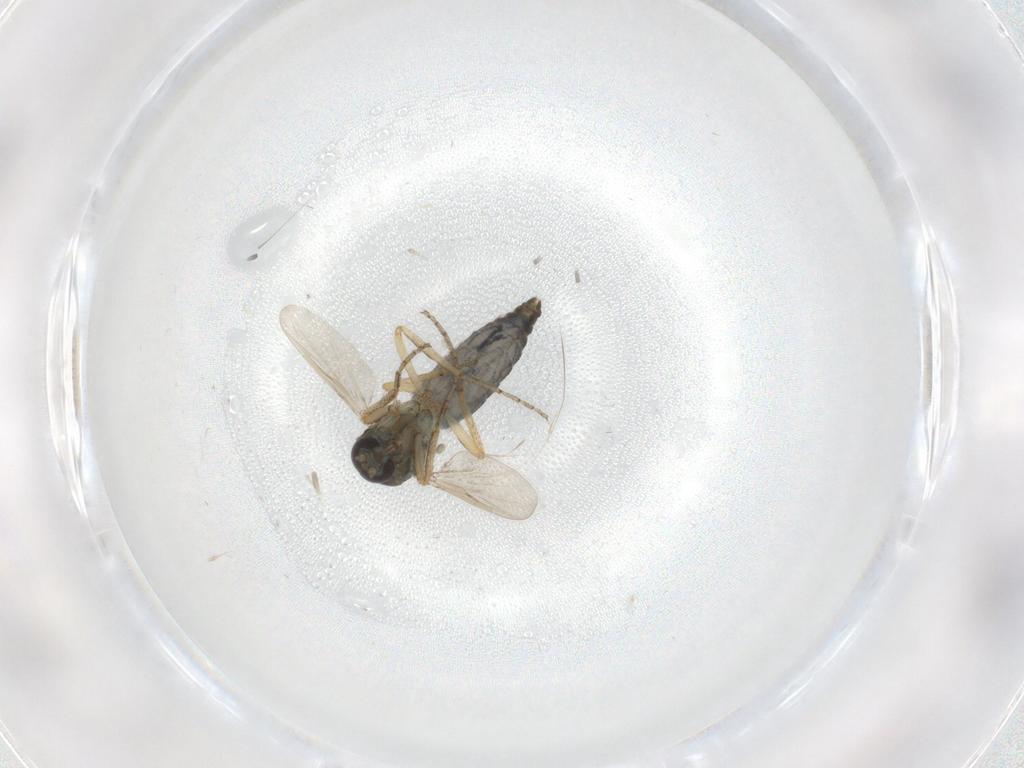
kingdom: Animalia
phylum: Arthropoda
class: Insecta
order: Diptera
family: Ceratopogonidae
